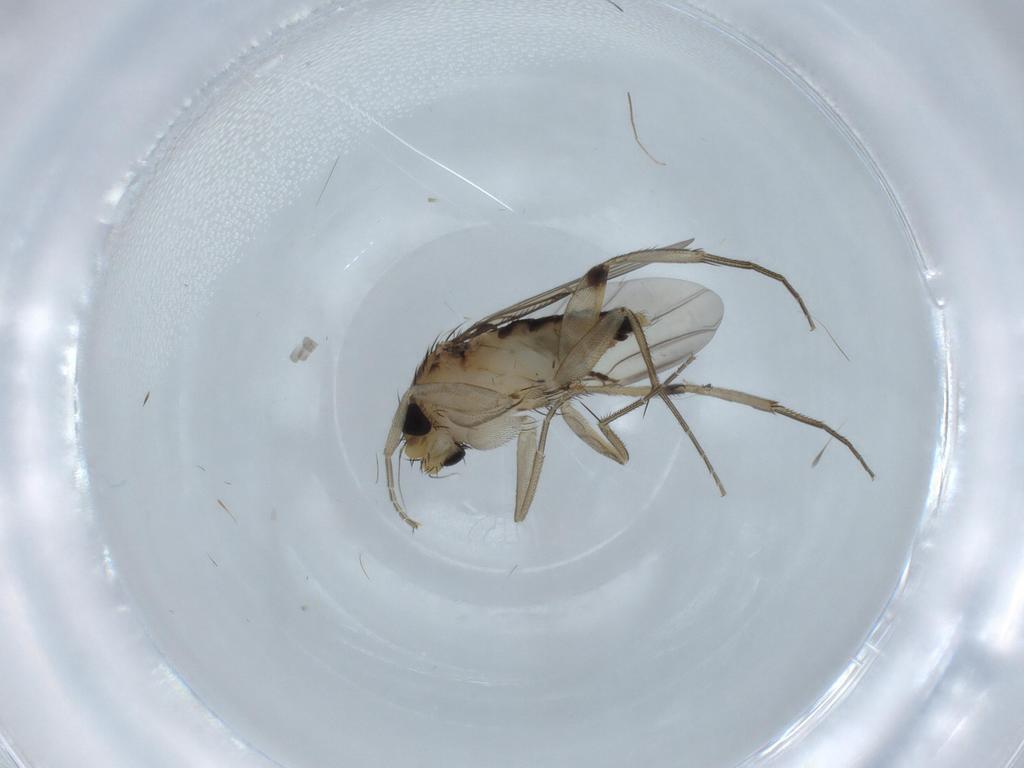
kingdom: Animalia
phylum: Arthropoda
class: Insecta
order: Diptera
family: Phoridae
